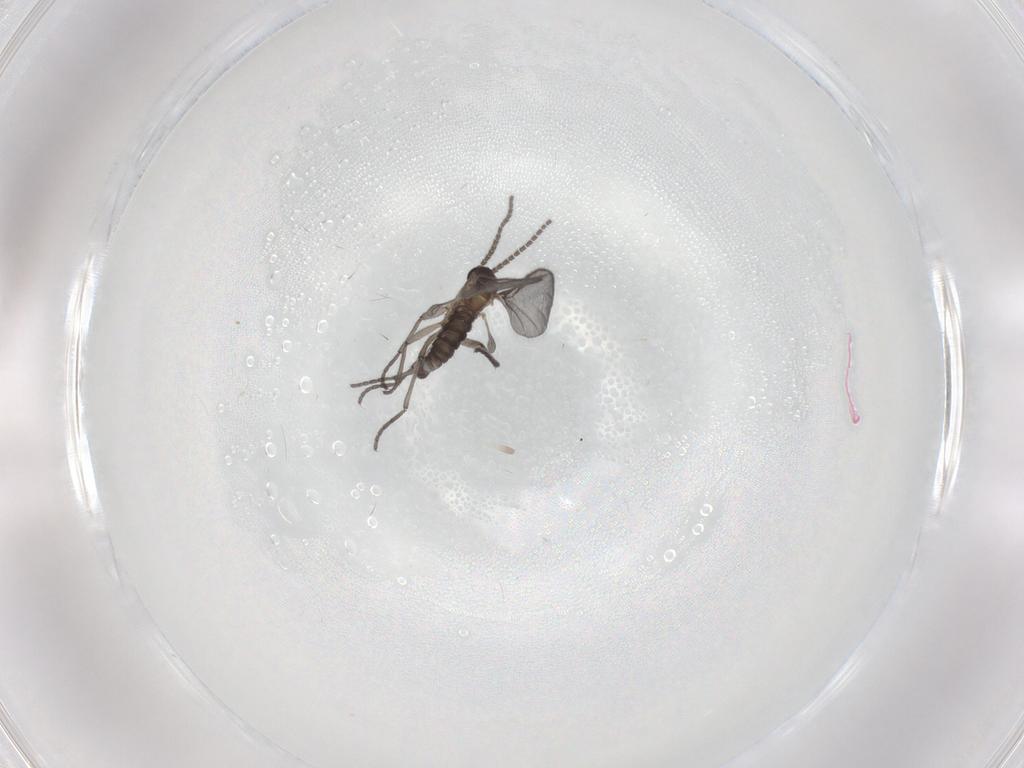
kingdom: Animalia
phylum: Arthropoda
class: Insecta
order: Diptera
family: Sciaridae
